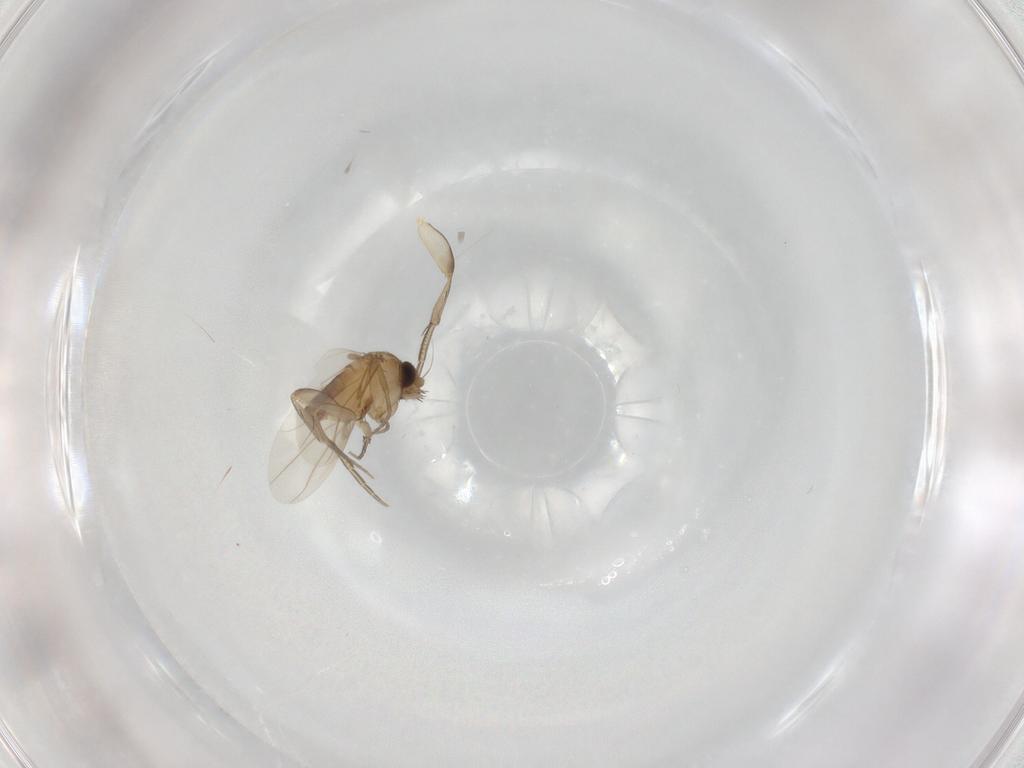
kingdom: Animalia
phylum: Arthropoda
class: Insecta
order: Diptera
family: Phoridae
